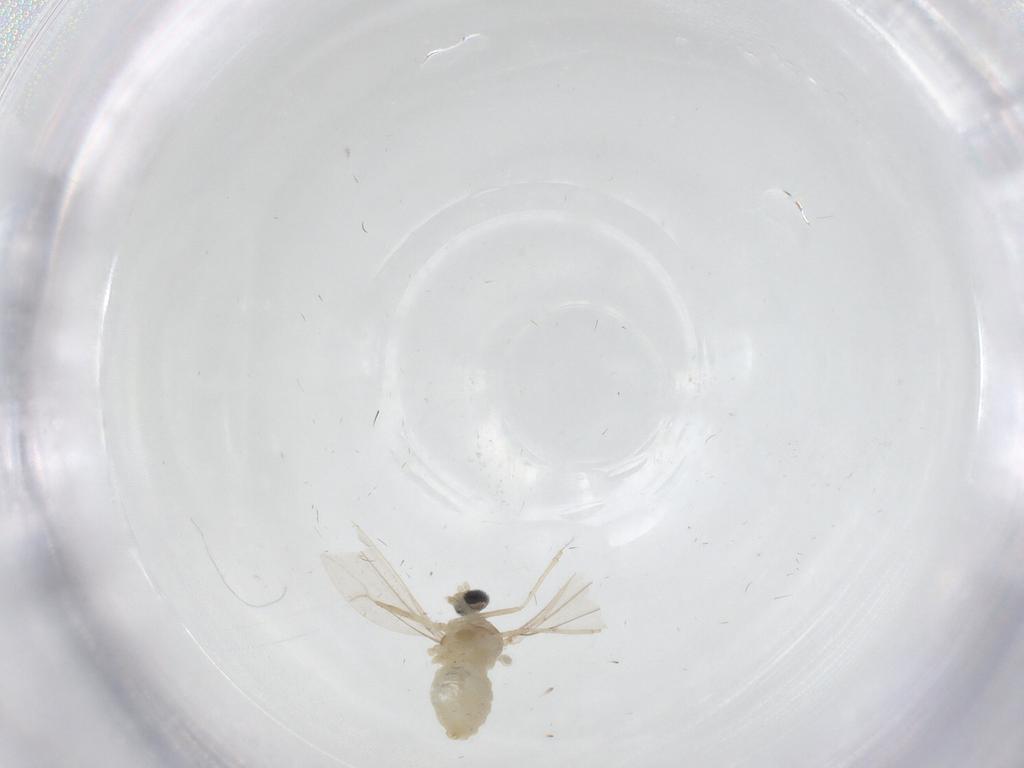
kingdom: Animalia
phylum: Arthropoda
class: Insecta
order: Diptera
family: Cecidomyiidae
